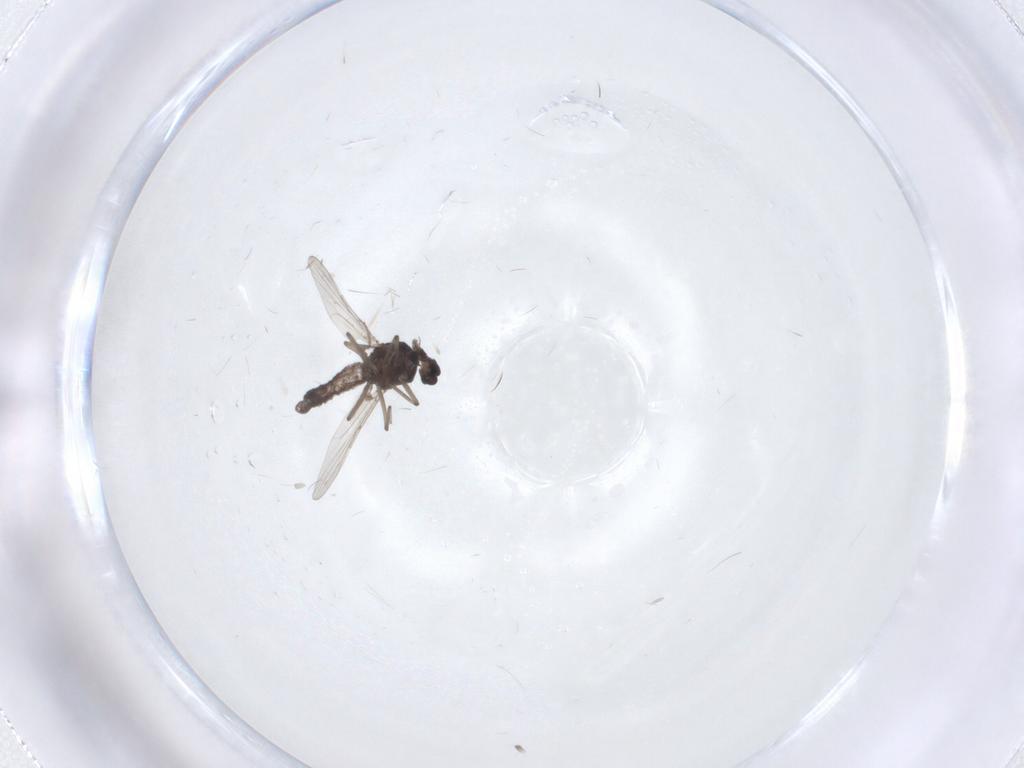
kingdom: Animalia
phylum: Arthropoda
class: Insecta
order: Diptera
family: Ceratopogonidae
